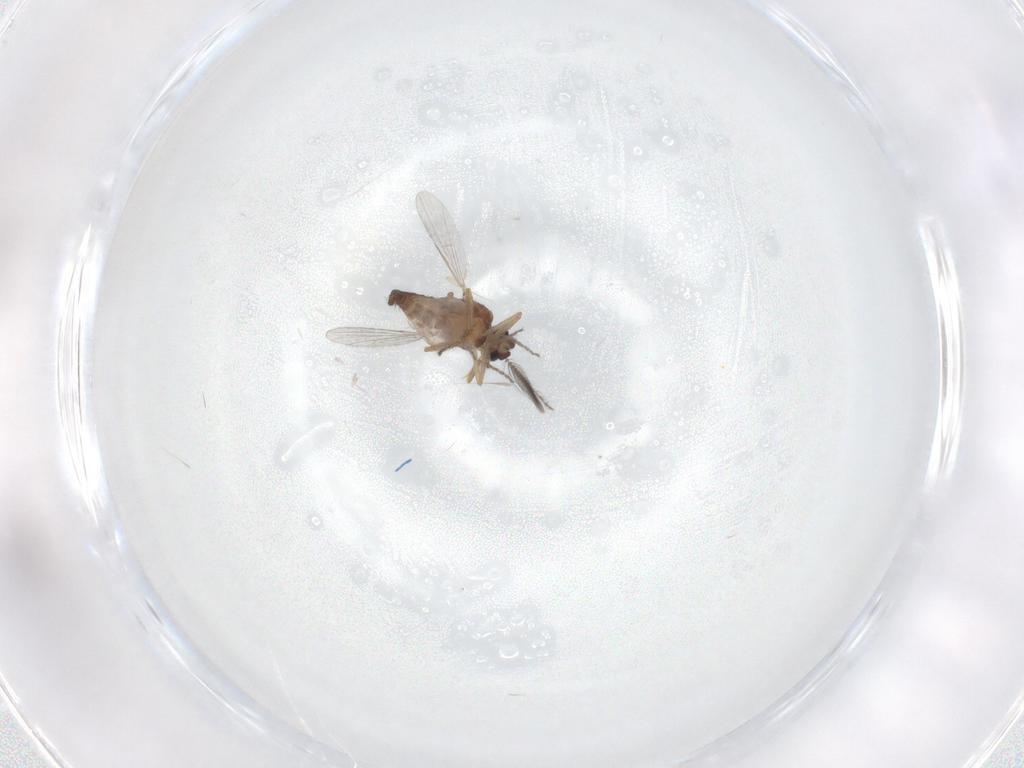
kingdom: Animalia
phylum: Arthropoda
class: Insecta
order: Diptera
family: Ceratopogonidae
